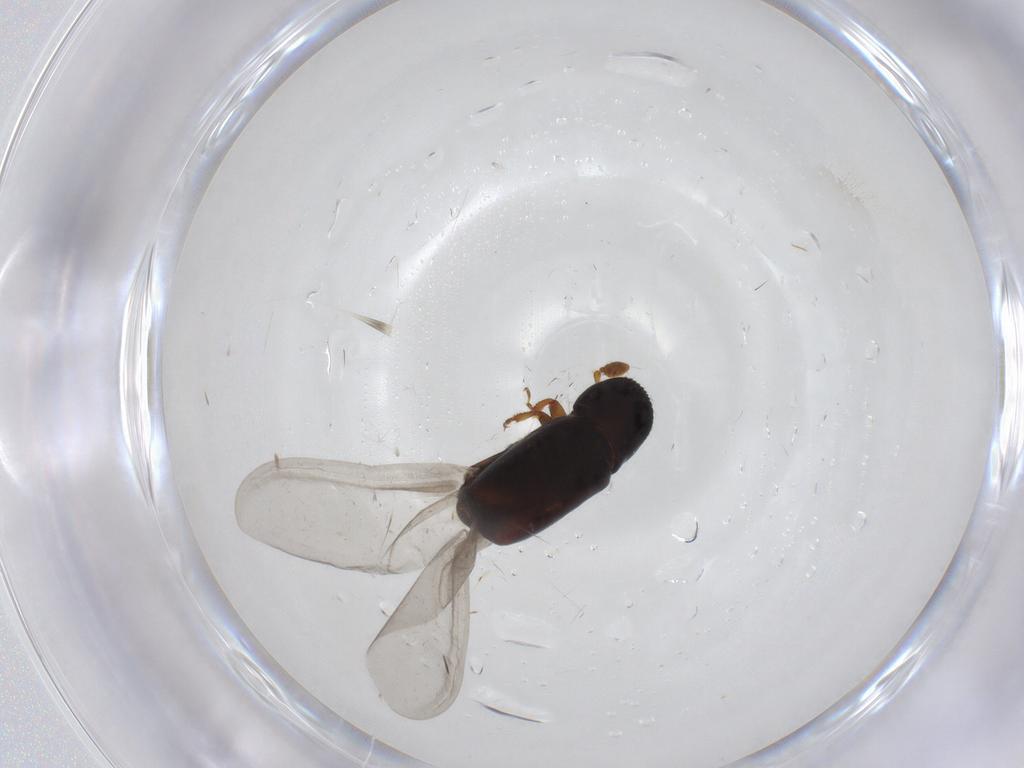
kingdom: Animalia
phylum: Arthropoda
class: Insecta
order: Coleoptera
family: Curculionidae
